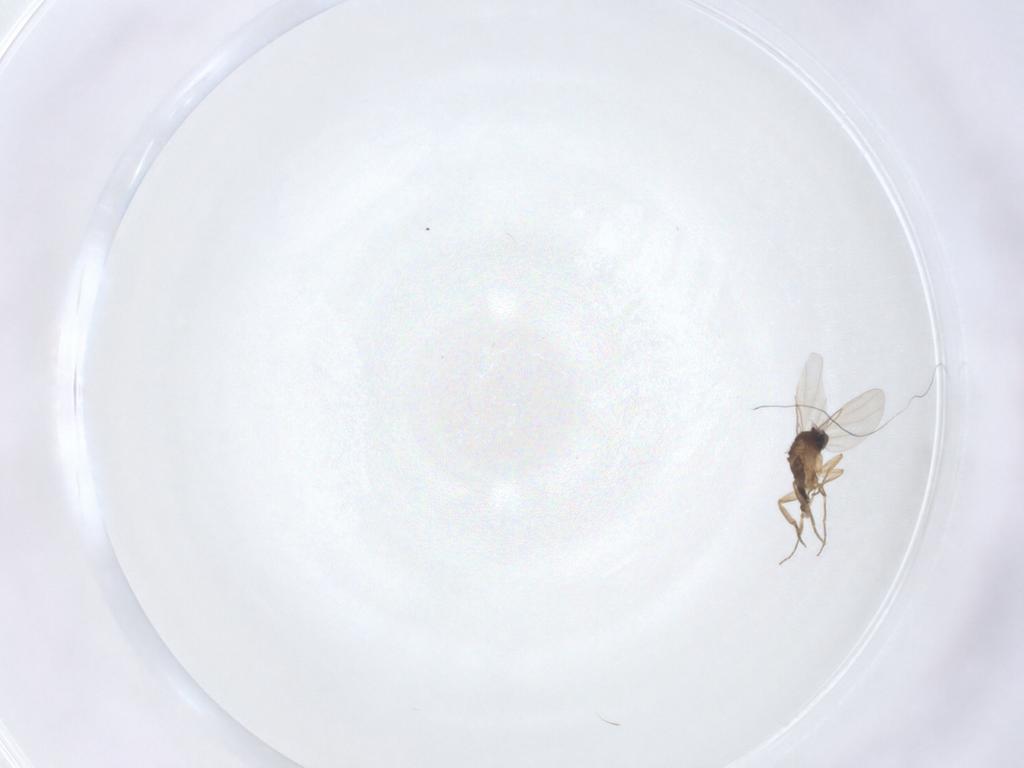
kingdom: Animalia
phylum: Arthropoda
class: Insecta
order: Diptera
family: Phoridae
